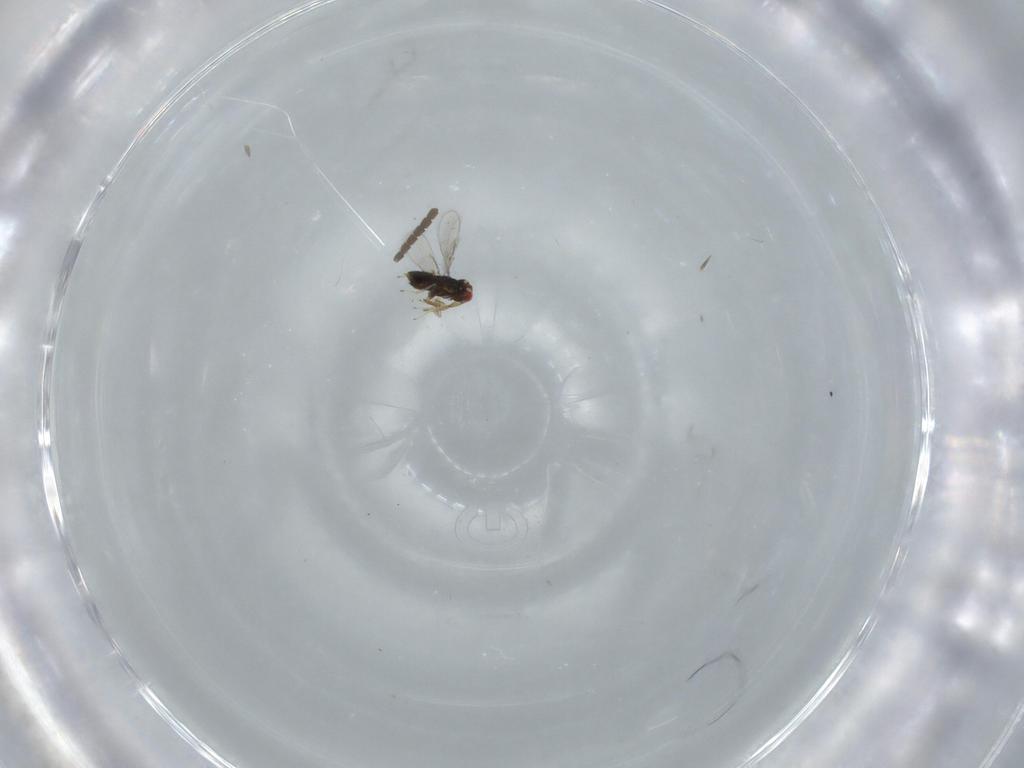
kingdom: Animalia
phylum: Arthropoda
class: Insecta
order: Hymenoptera
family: Azotidae
